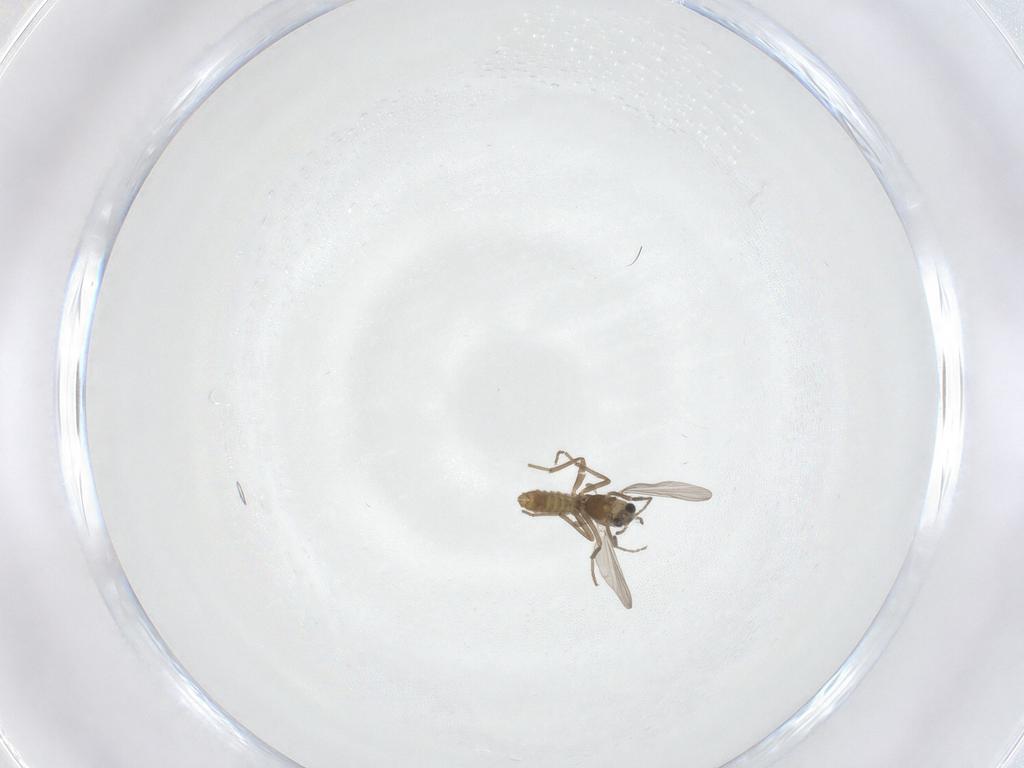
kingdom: Animalia
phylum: Arthropoda
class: Insecta
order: Diptera
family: Chironomidae
